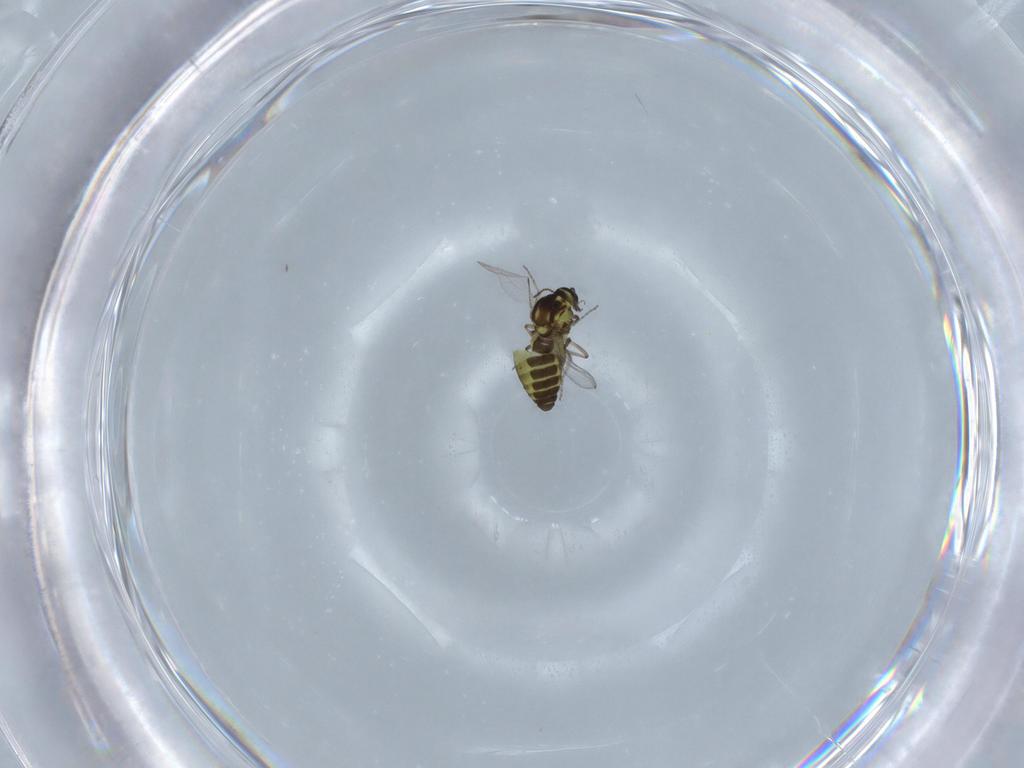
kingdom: Animalia
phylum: Arthropoda
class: Insecta
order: Diptera
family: Ceratopogonidae
